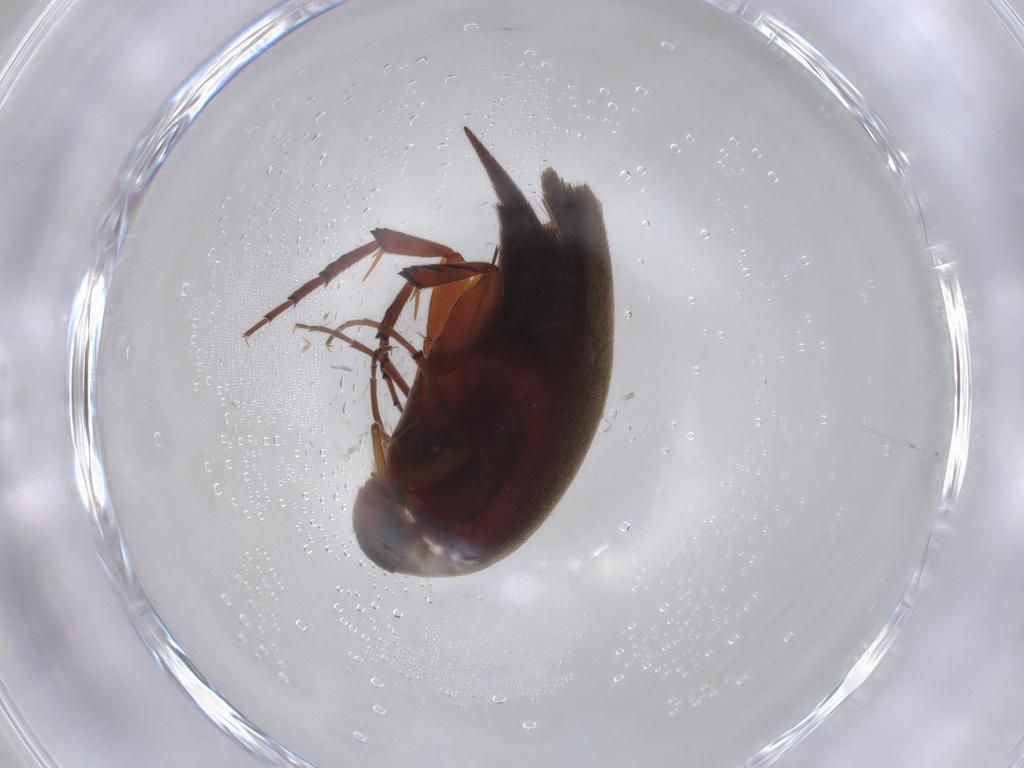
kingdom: Animalia
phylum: Arthropoda
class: Insecta
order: Coleoptera
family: Mordellidae
